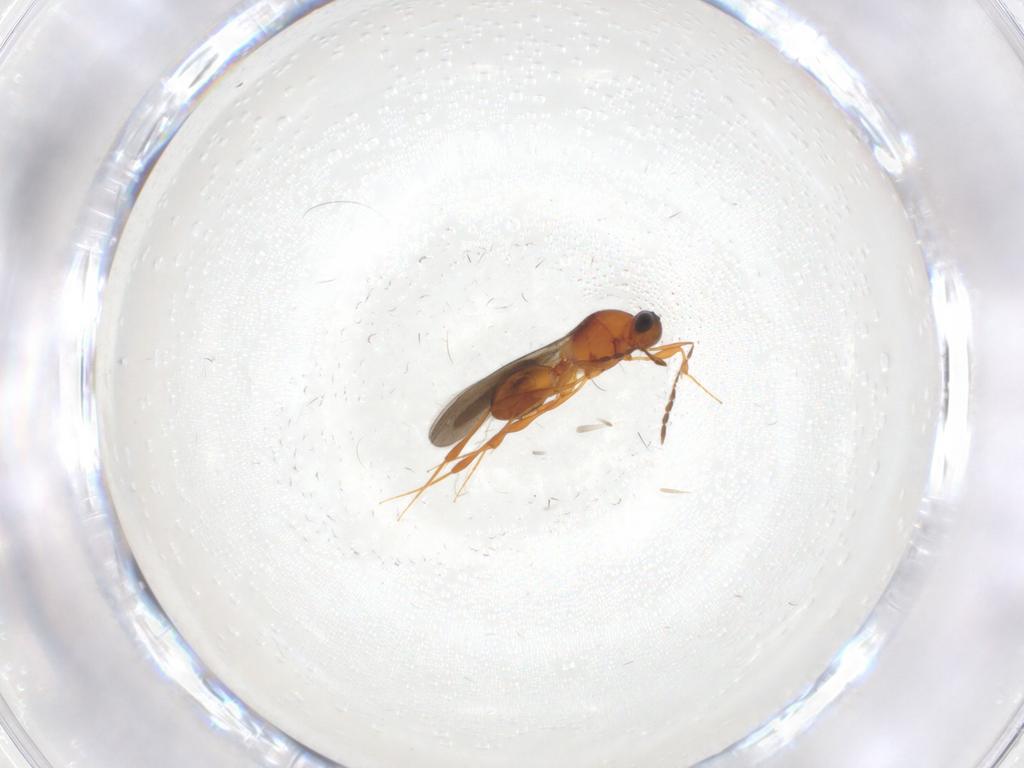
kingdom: Animalia
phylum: Arthropoda
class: Insecta
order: Hymenoptera
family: Platygastridae
